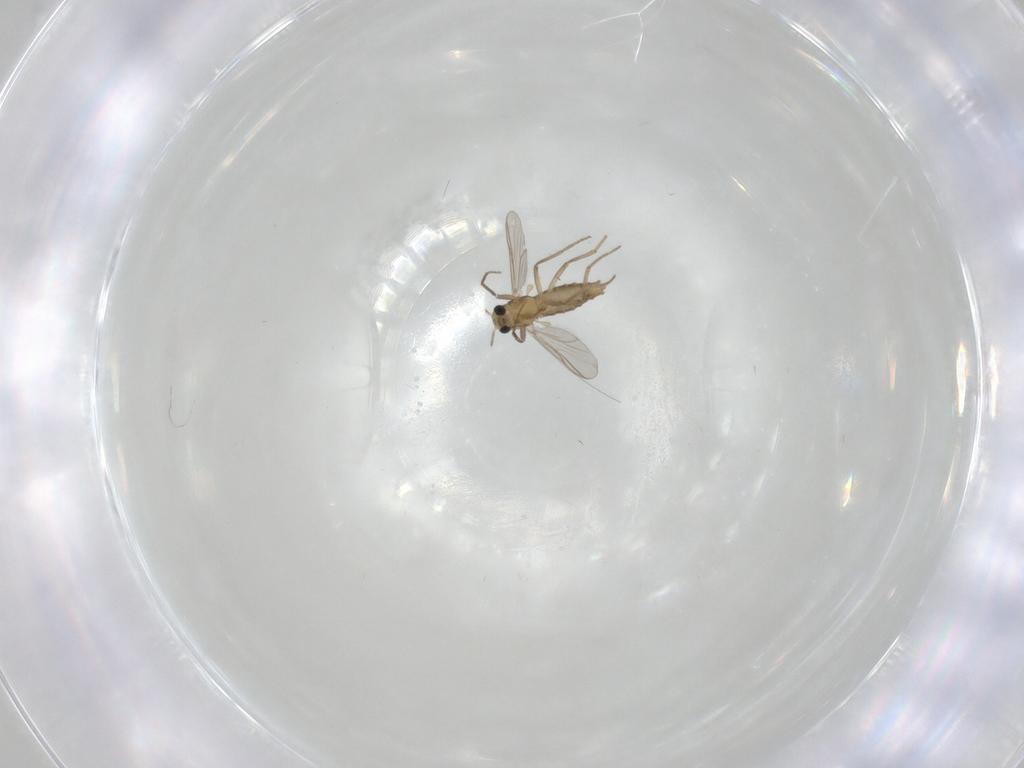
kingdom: Animalia
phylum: Arthropoda
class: Insecta
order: Diptera
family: Chironomidae
